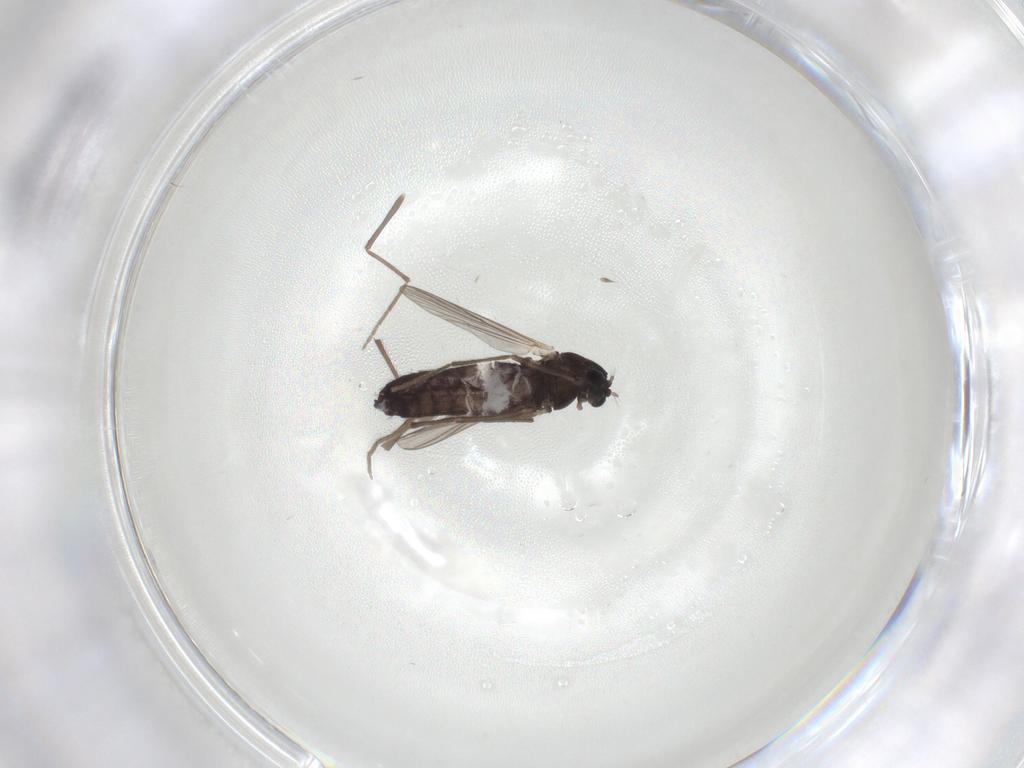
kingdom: Animalia
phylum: Arthropoda
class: Insecta
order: Diptera
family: Chironomidae
